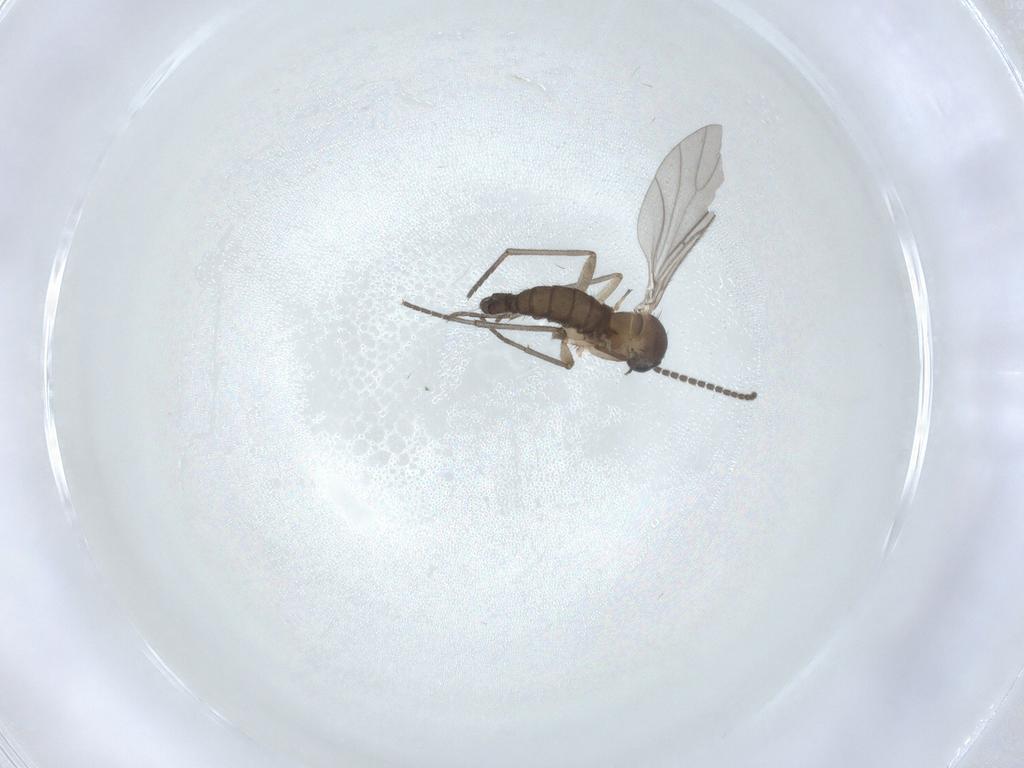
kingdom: Animalia
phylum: Arthropoda
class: Insecta
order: Diptera
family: Sciaridae
